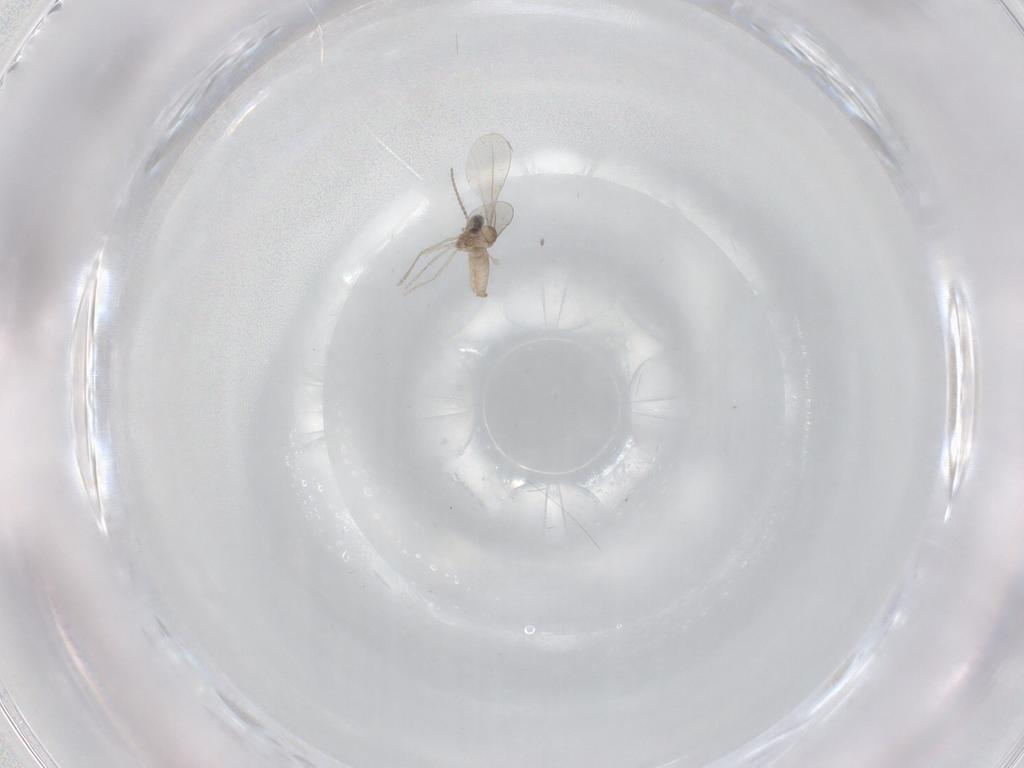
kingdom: Animalia
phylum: Arthropoda
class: Insecta
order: Diptera
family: Cecidomyiidae
